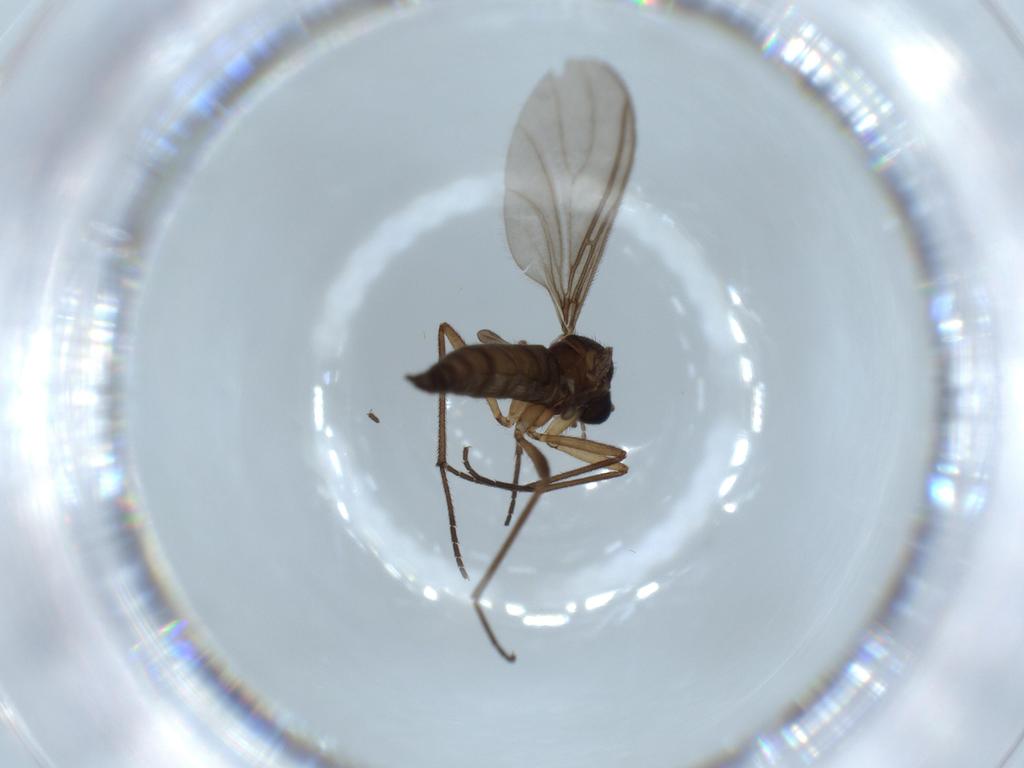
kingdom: Animalia
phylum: Arthropoda
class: Insecta
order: Diptera
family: Sciaridae
